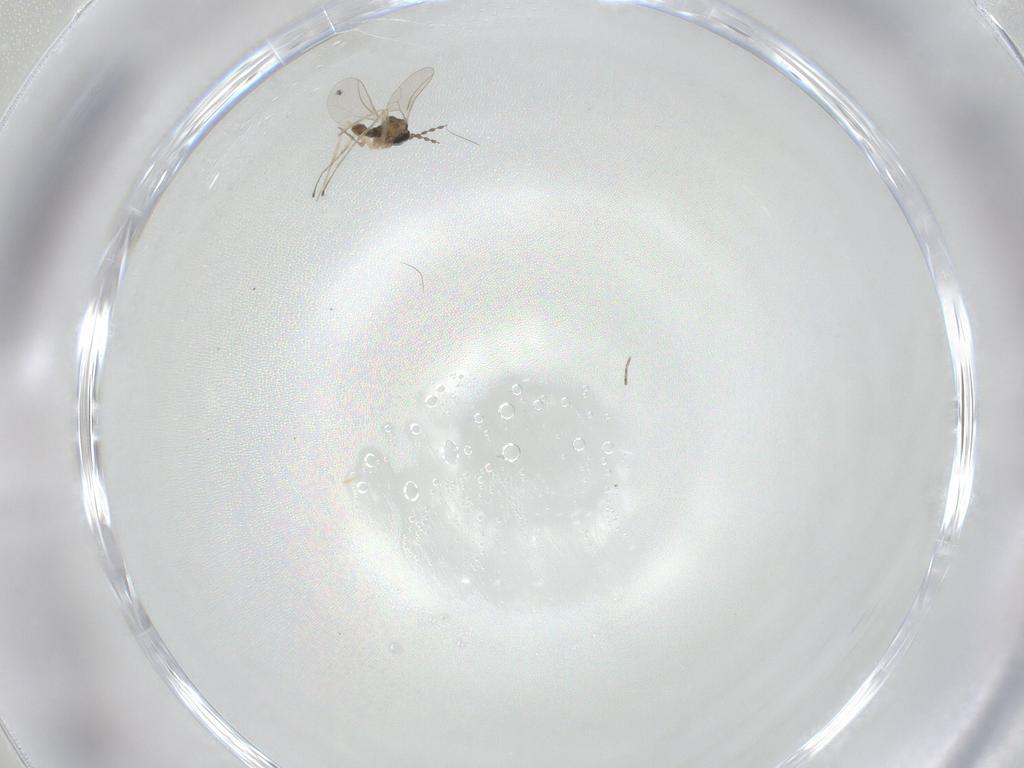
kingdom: Animalia
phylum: Arthropoda
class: Insecta
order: Diptera
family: Cecidomyiidae
